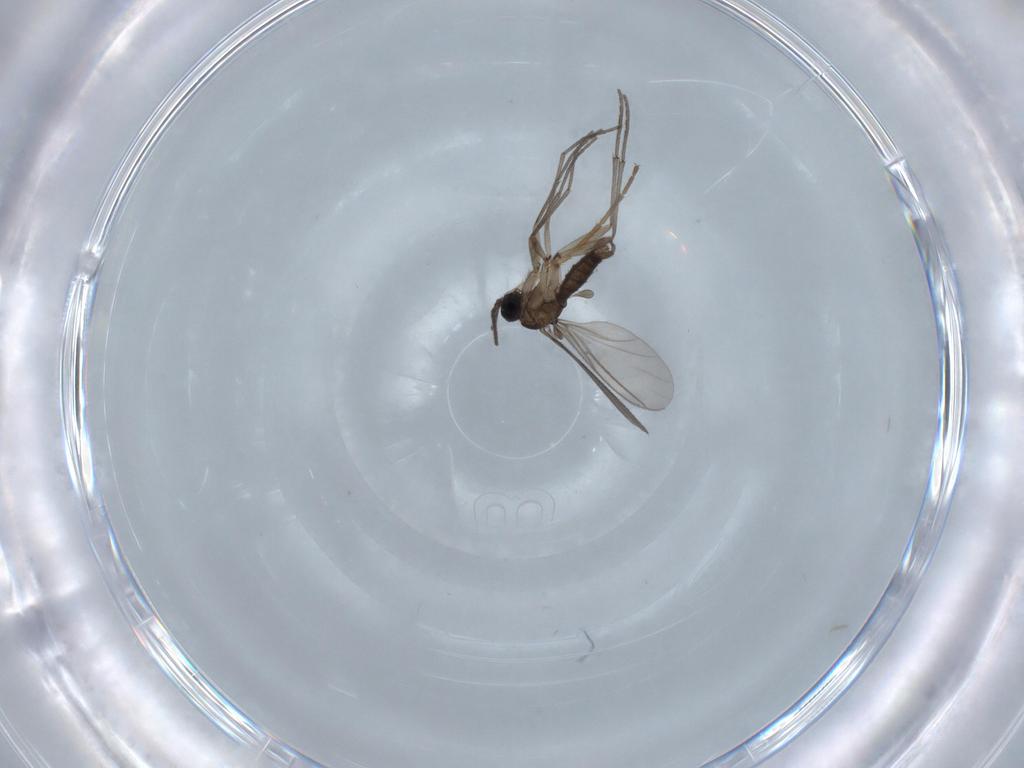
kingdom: Animalia
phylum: Arthropoda
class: Insecta
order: Diptera
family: Sciaridae
